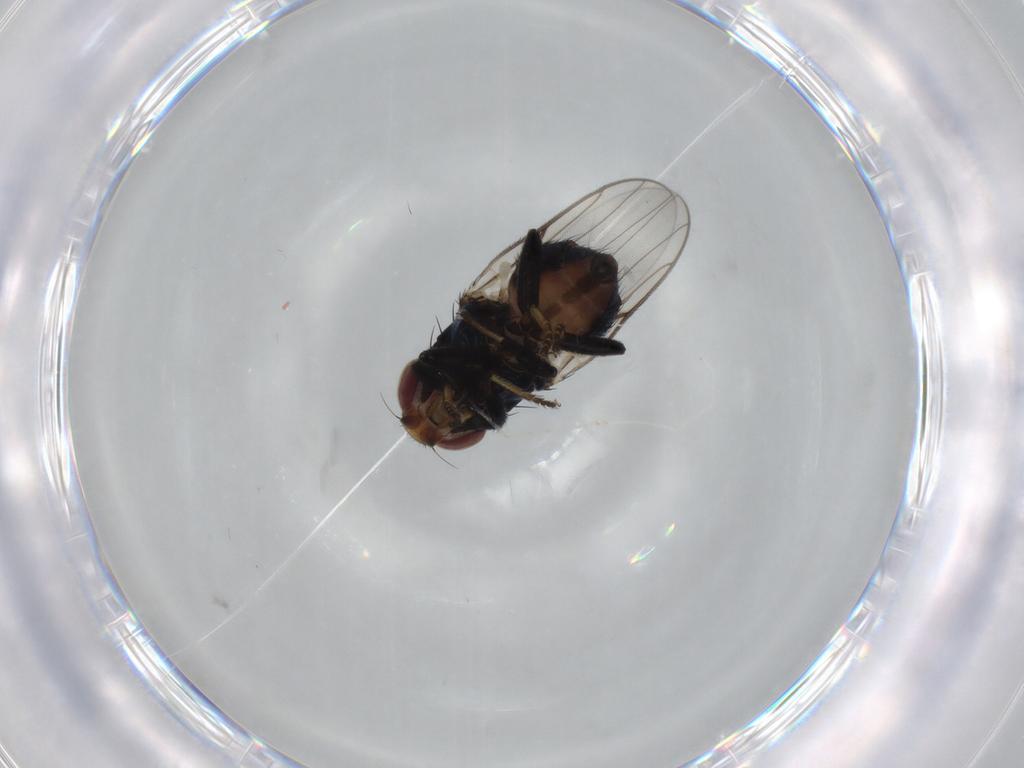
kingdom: Animalia
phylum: Arthropoda
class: Insecta
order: Diptera
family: Chloropidae
